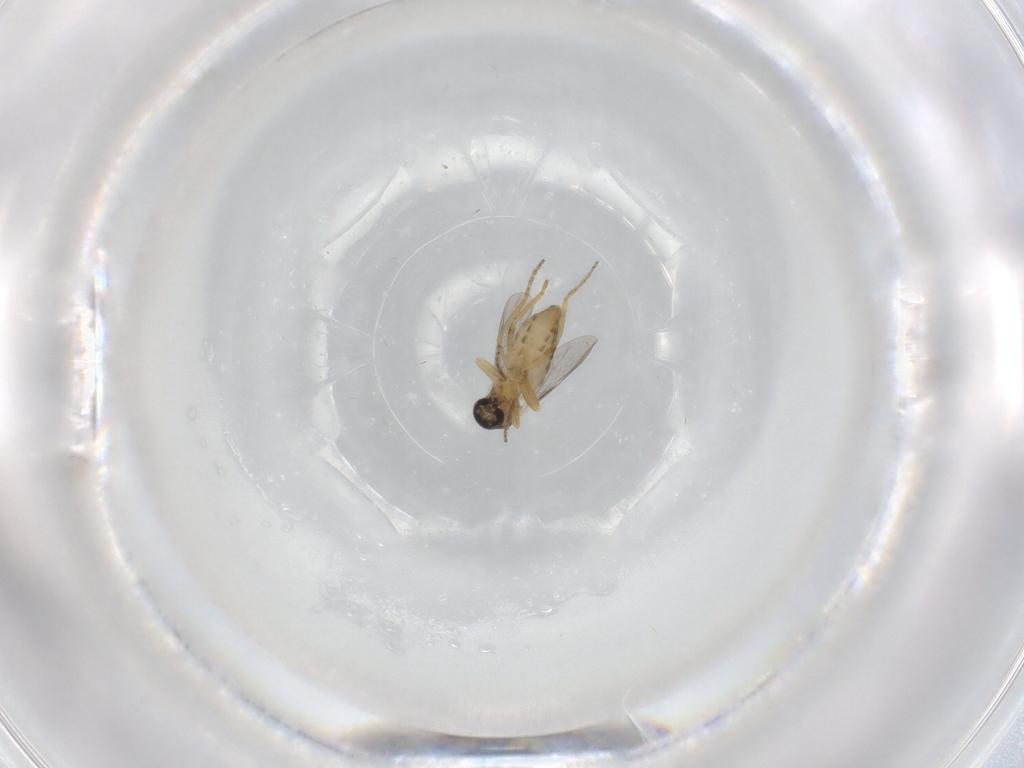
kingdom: Animalia
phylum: Arthropoda
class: Insecta
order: Diptera
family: Ceratopogonidae
